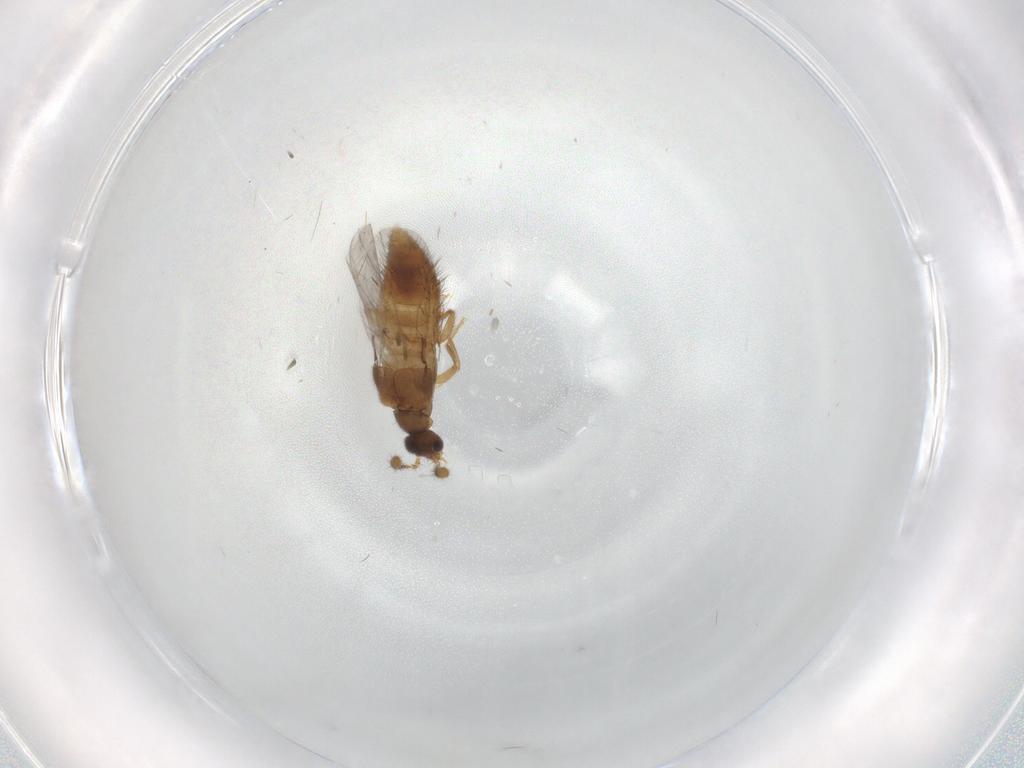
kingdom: Animalia
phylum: Arthropoda
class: Insecta
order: Coleoptera
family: Staphylinidae
